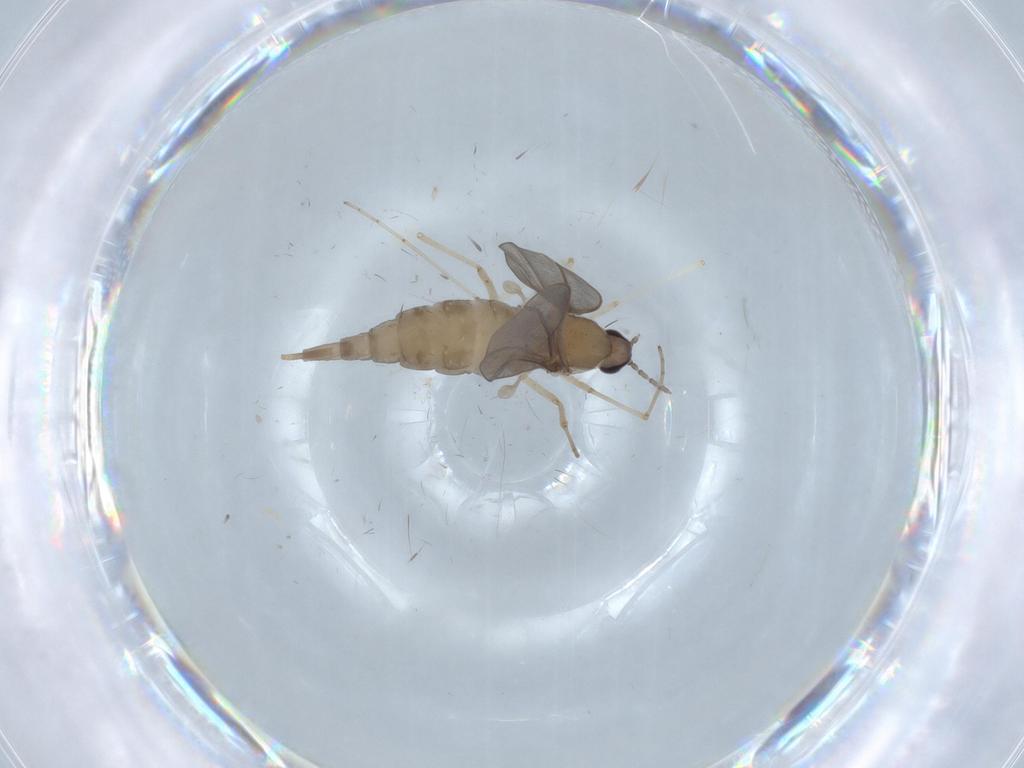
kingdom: Animalia
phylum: Arthropoda
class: Insecta
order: Diptera
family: Cecidomyiidae
